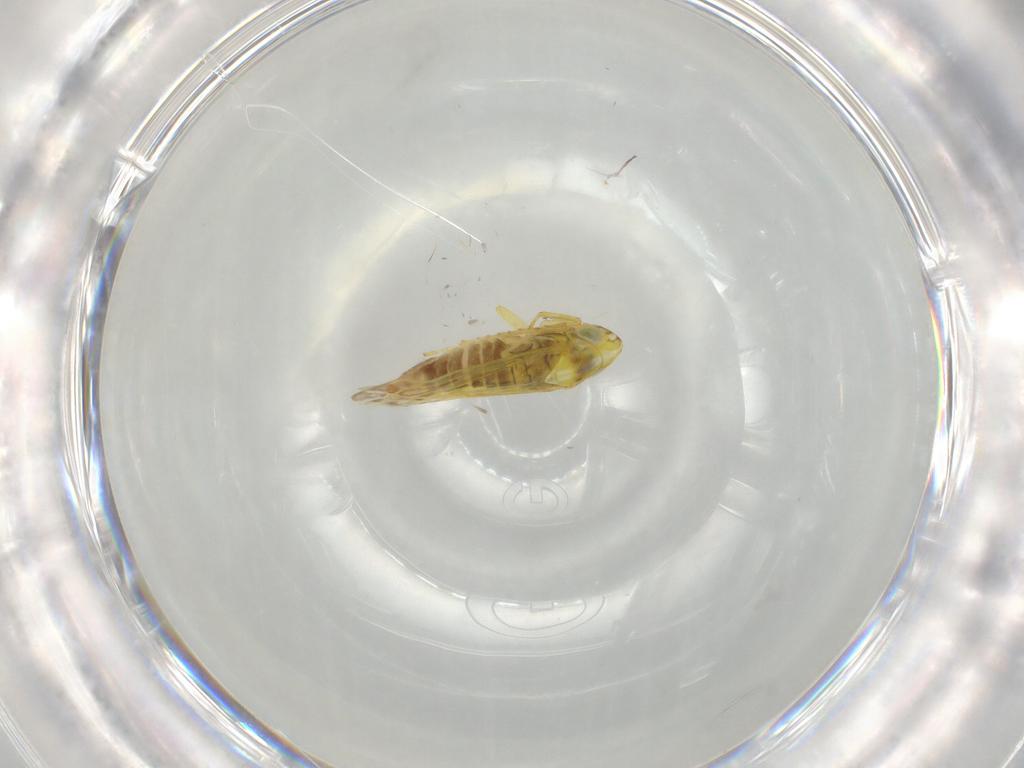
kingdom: Animalia
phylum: Arthropoda
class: Insecta
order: Hemiptera
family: Cicadellidae
